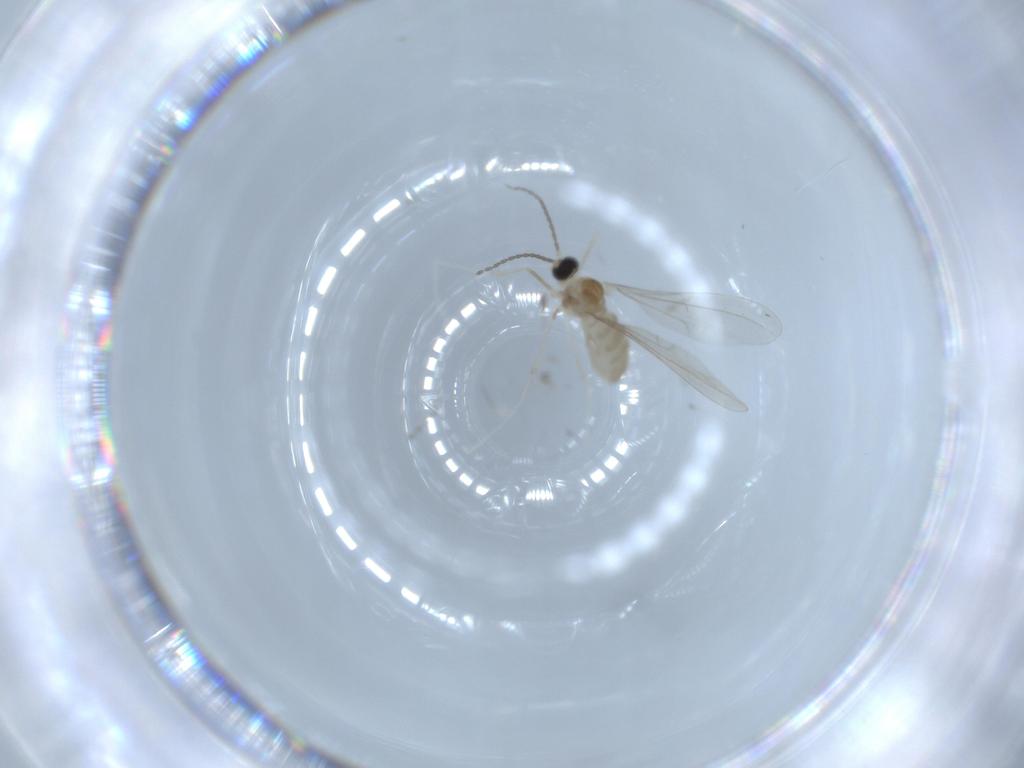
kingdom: Animalia
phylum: Arthropoda
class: Insecta
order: Diptera
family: Cecidomyiidae
